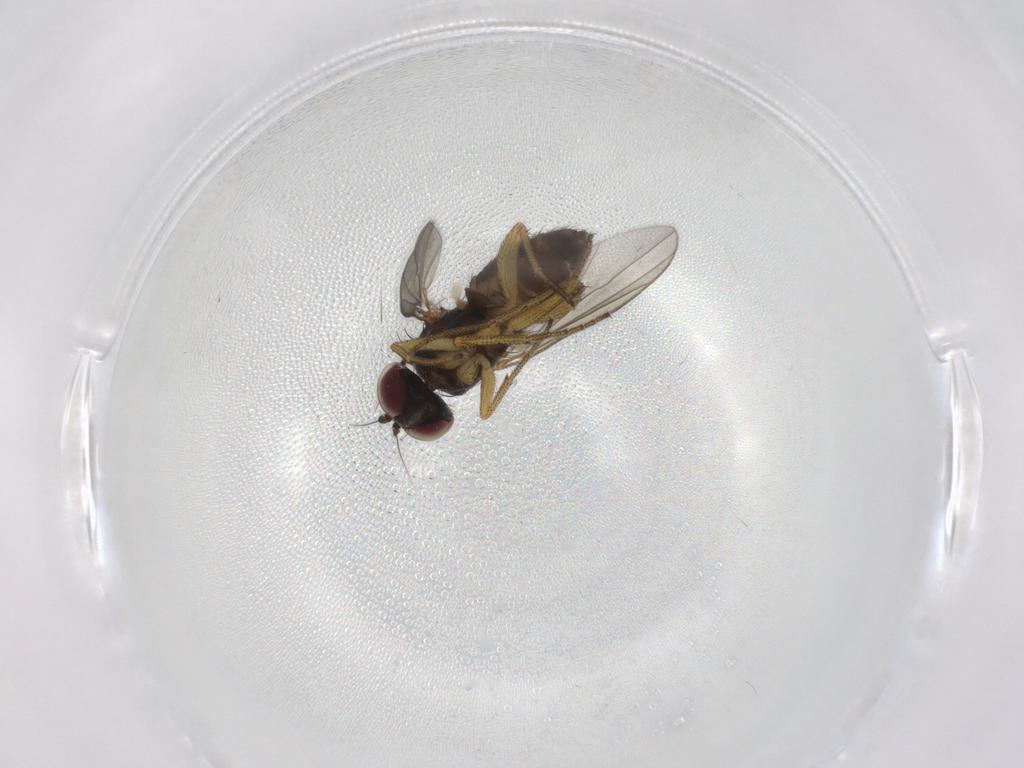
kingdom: Animalia
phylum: Arthropoda
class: Insecta
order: Diptera
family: Dolichopodidae
